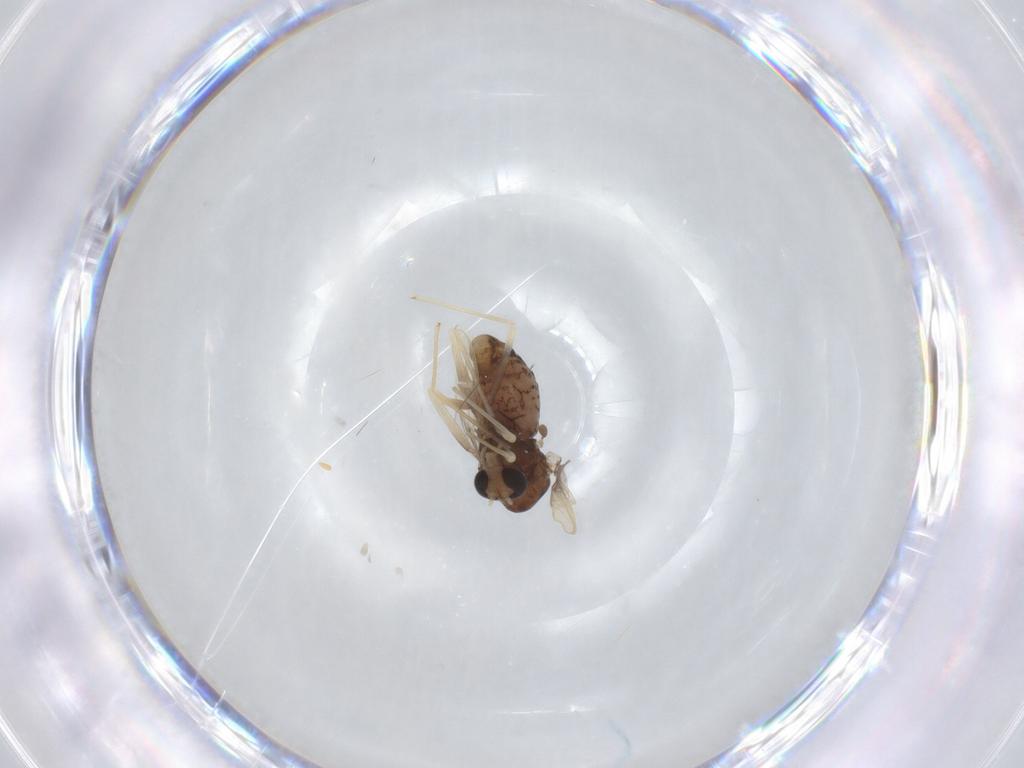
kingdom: Animalia
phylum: Arthropoda
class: Insecta
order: Diptera
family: Chironomidae
